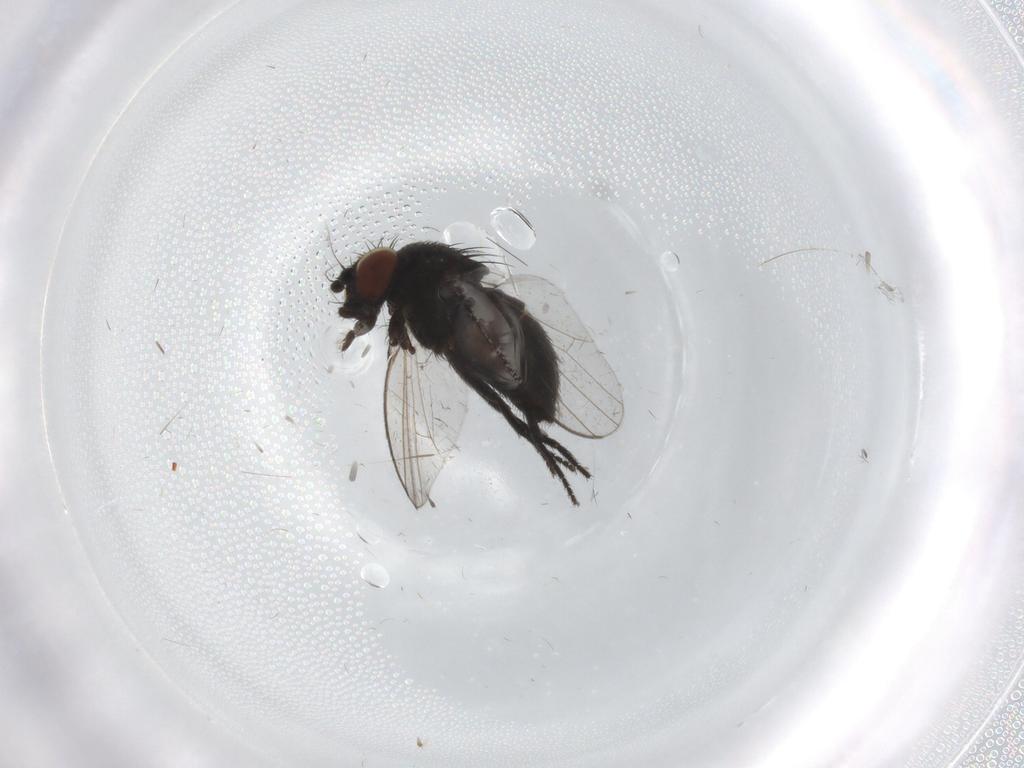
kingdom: Animalia
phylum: Arthropoda
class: Insecta
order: Diptera
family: Milichiidae
